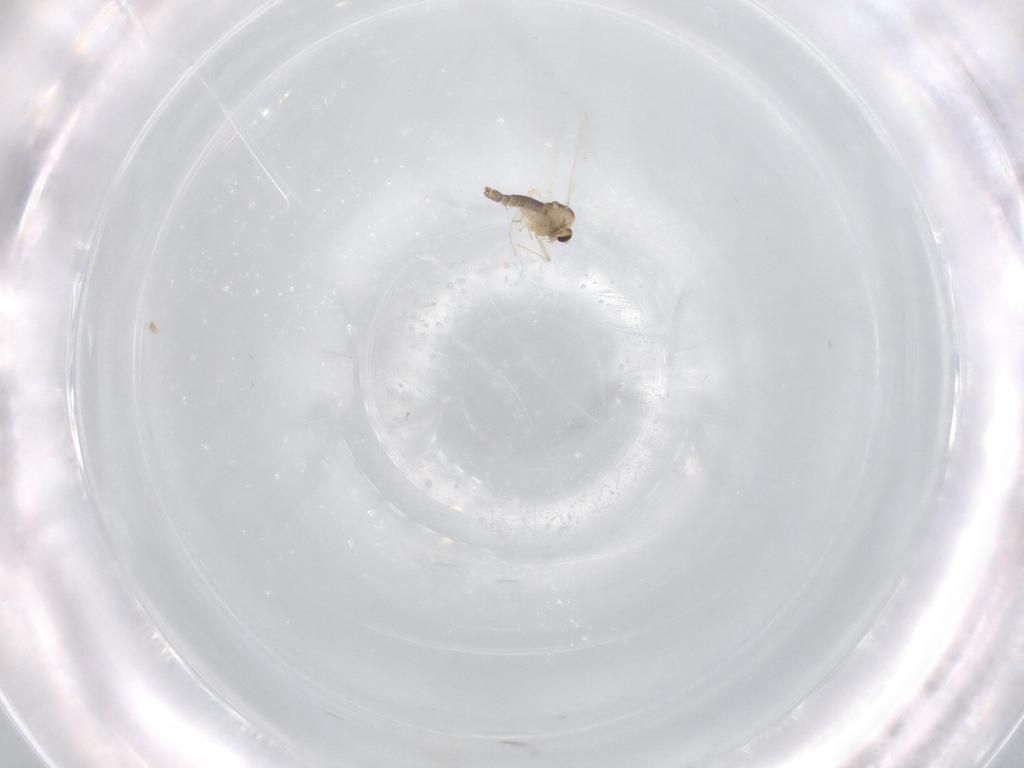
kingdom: Animalia
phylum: Arthropoda
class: Insecta
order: Diptera
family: Chironomidae
